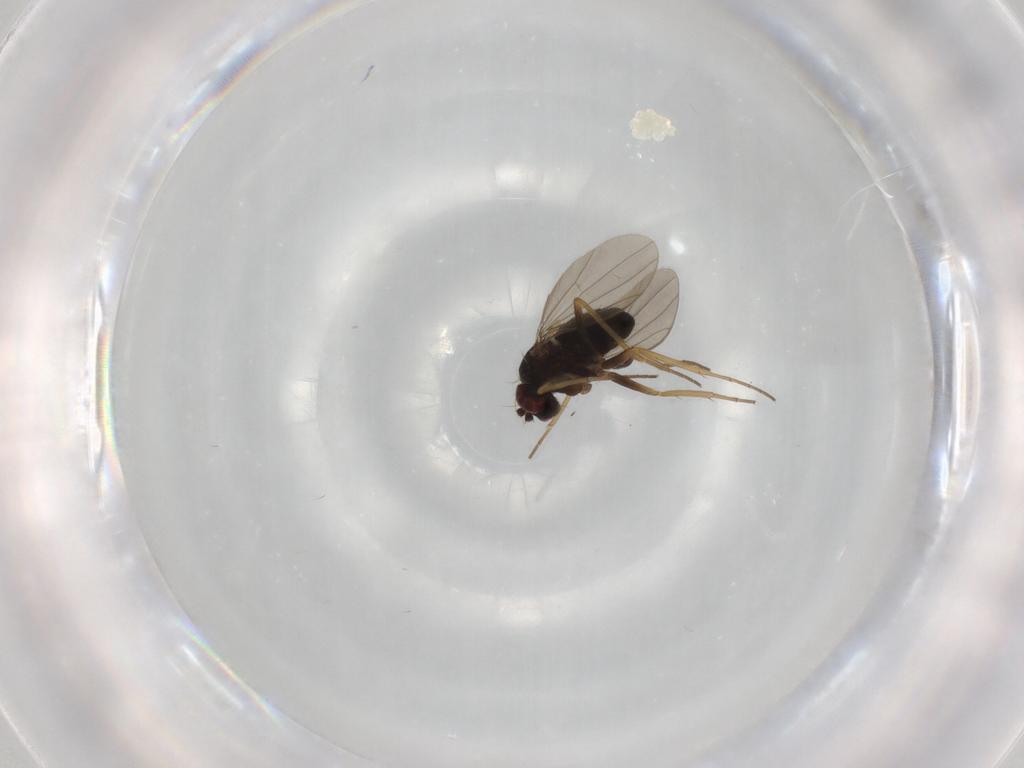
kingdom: Animalia
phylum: Arthropoda
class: Insecta
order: Diptera
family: Dolichopodidae
